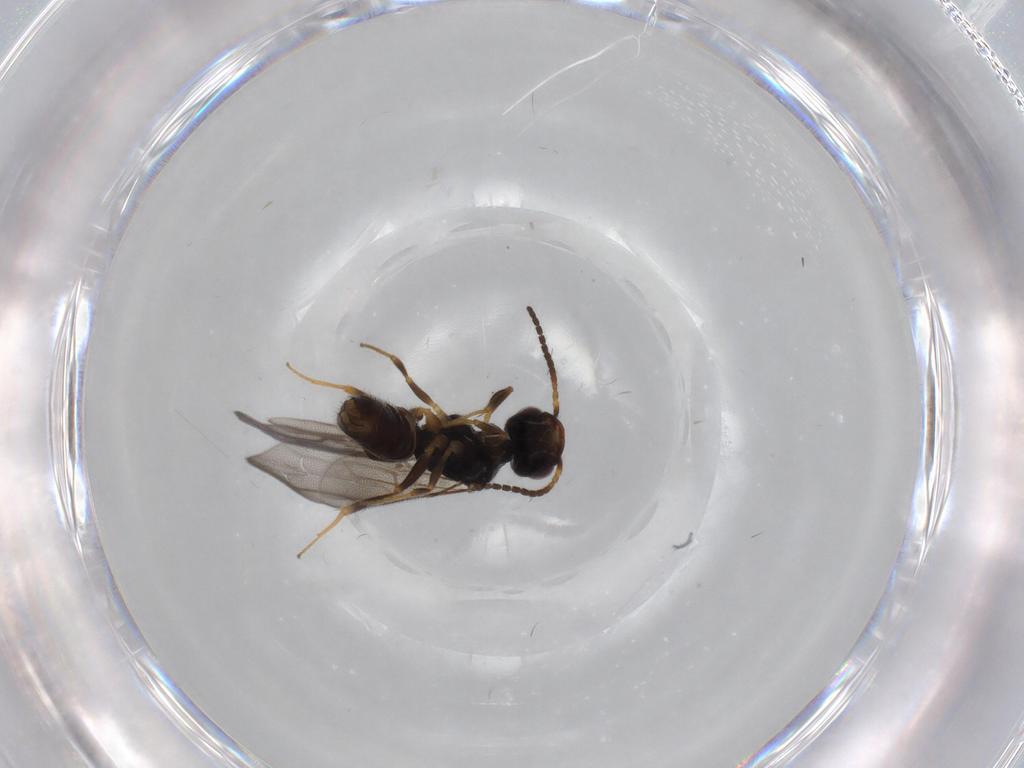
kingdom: Animalia
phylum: Arthropoda
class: Insecta
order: Hymenoptera
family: Bethylidae
